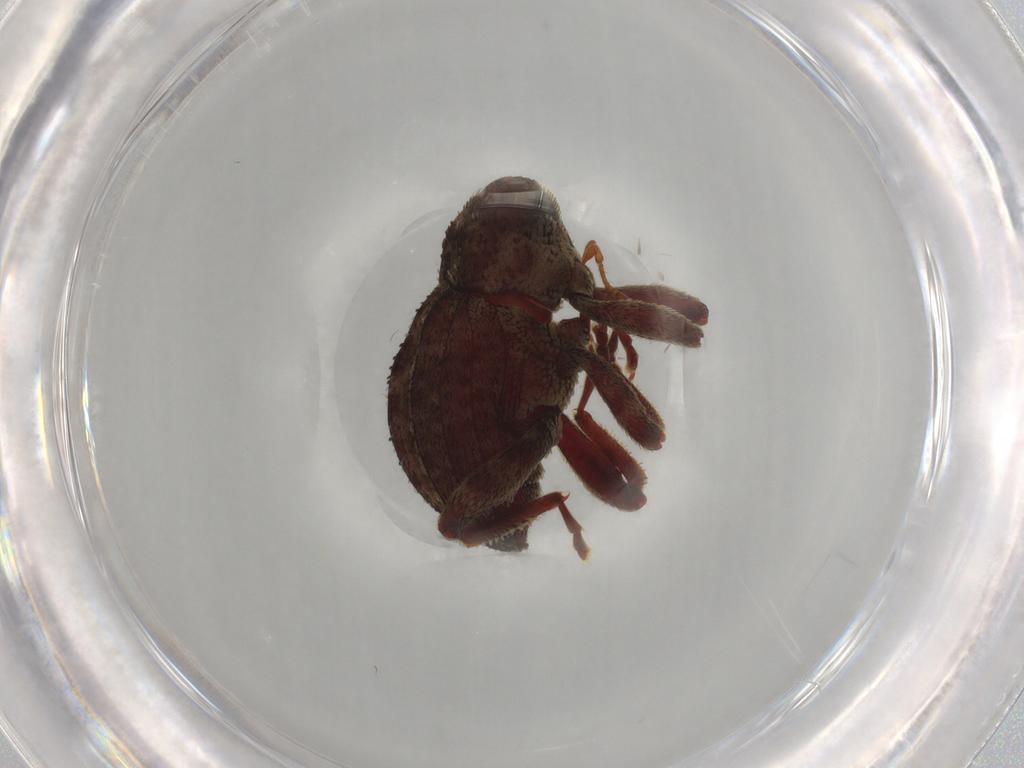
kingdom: Animalia
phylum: Arthropoda
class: Insecta
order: Coleoptera
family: Curculionidae
